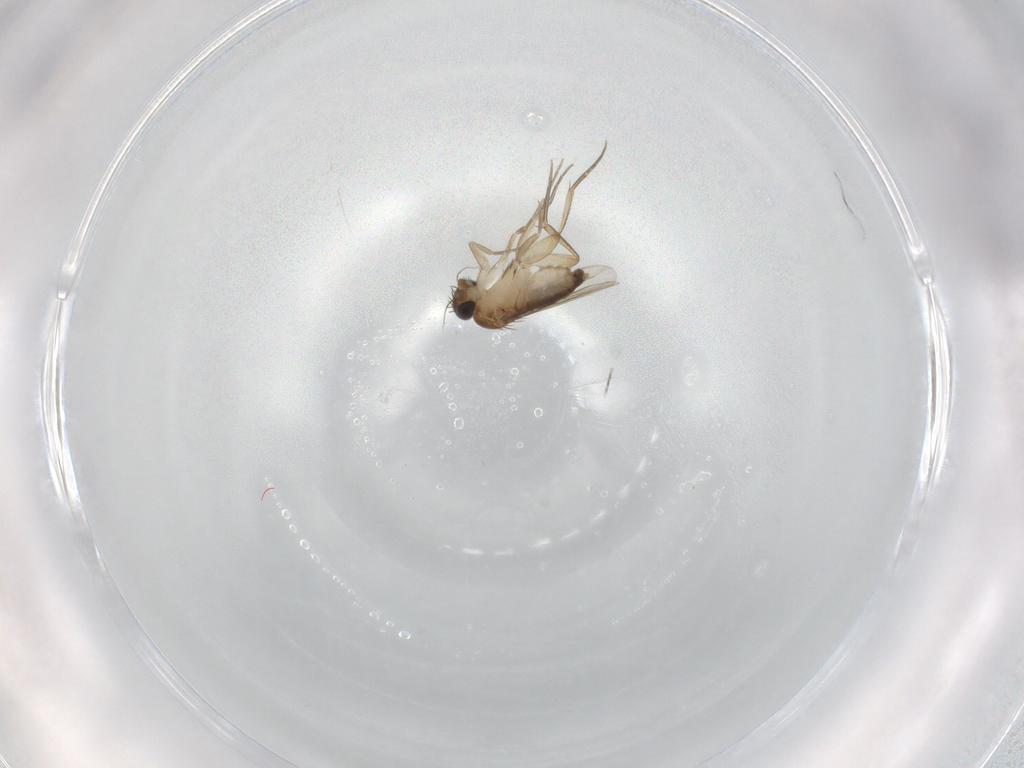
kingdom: Animalia
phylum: Arthropoda
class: Insecta
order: Diptera
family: Phoridae
